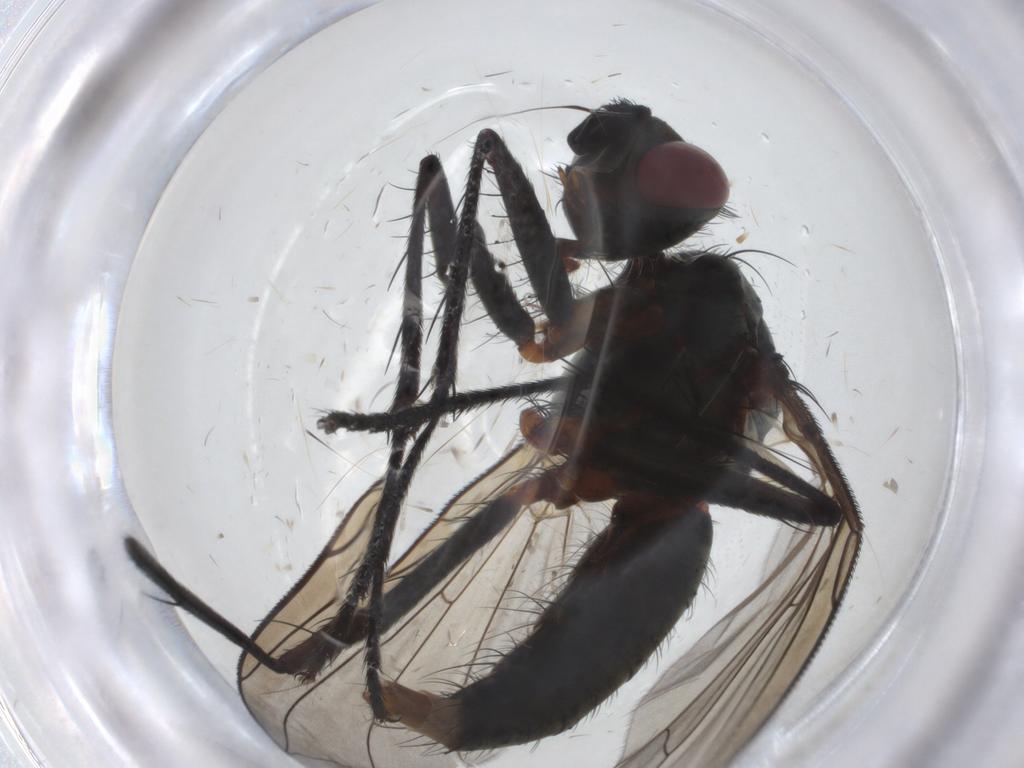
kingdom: Animalia
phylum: Arthropoda
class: Insecta
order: Diptera
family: Tachinidae
